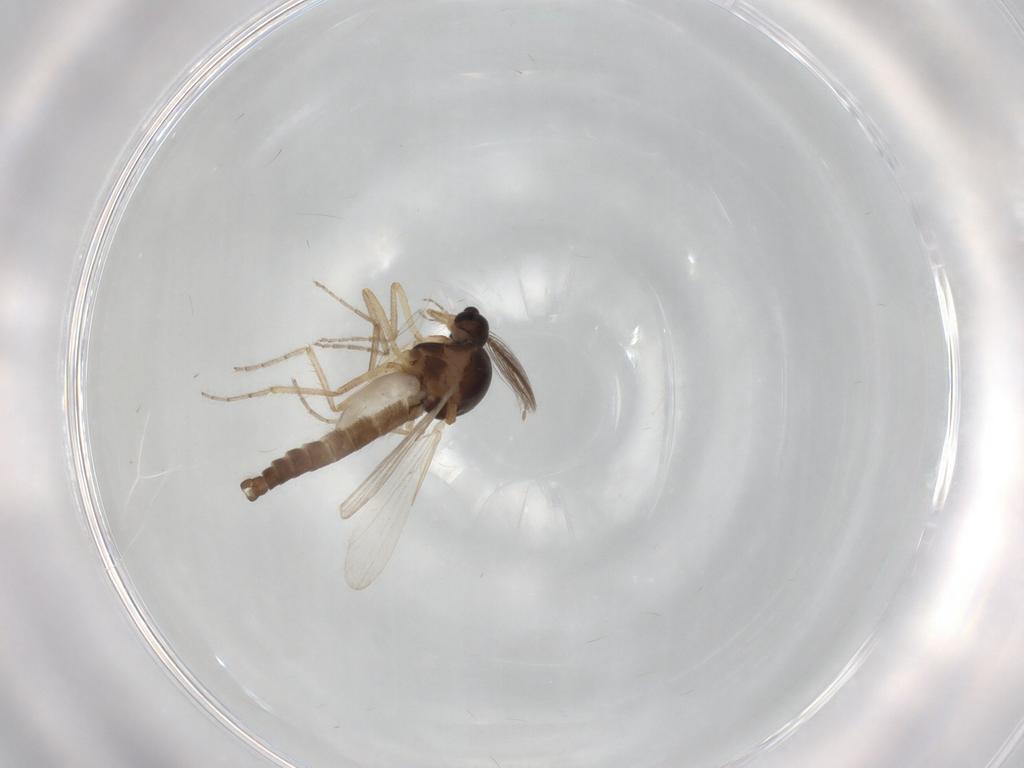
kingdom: Animalia
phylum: Arthropoda
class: Insecta
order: Diptera
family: Ceratopogonidae
